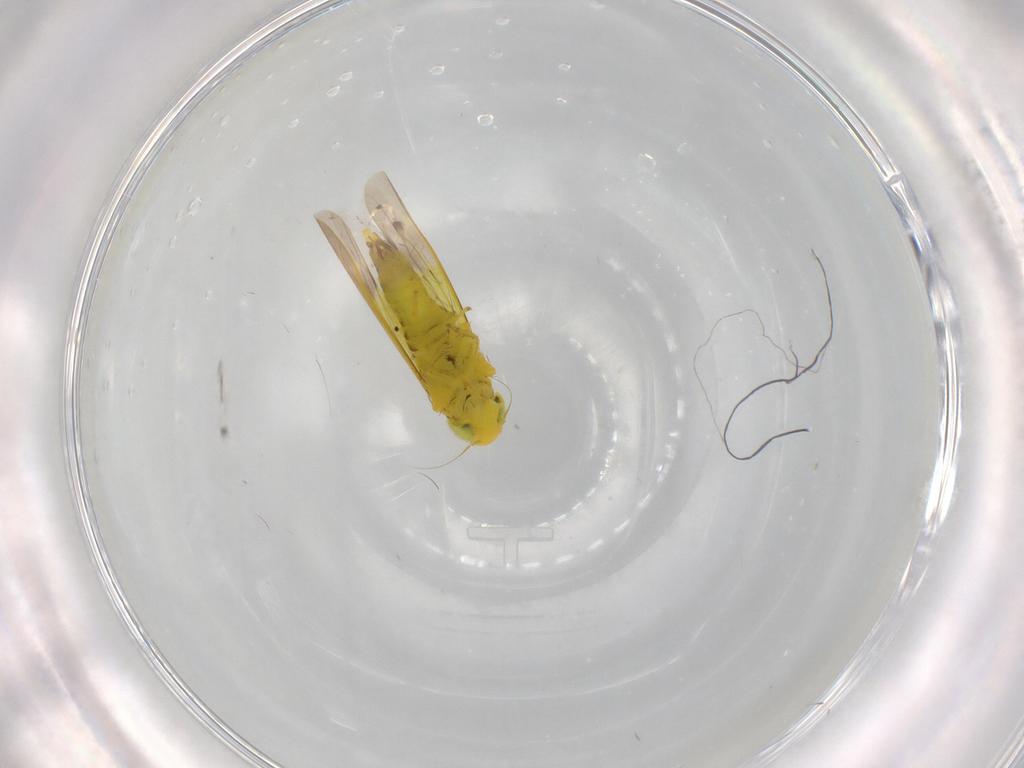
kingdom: Animalia
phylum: Arthropoda
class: Insecta
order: Hemiptera
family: Cicadellidae
